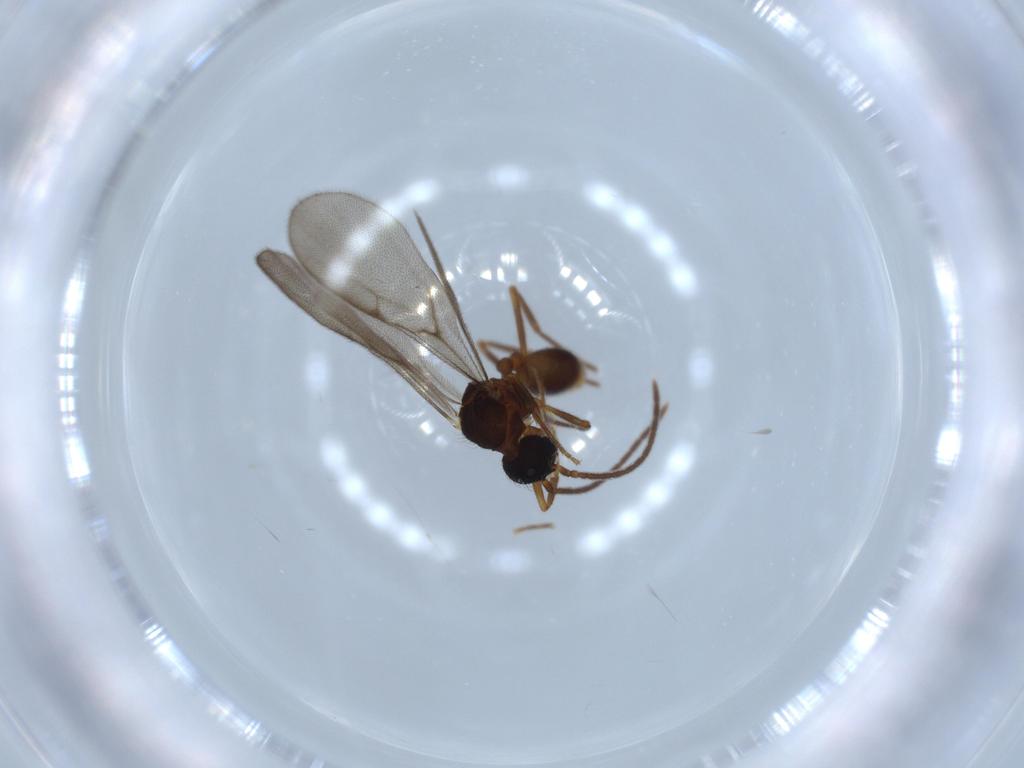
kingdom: Animalia
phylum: Arthropoda
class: Insecta
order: Hymenoptera
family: Formicidae
